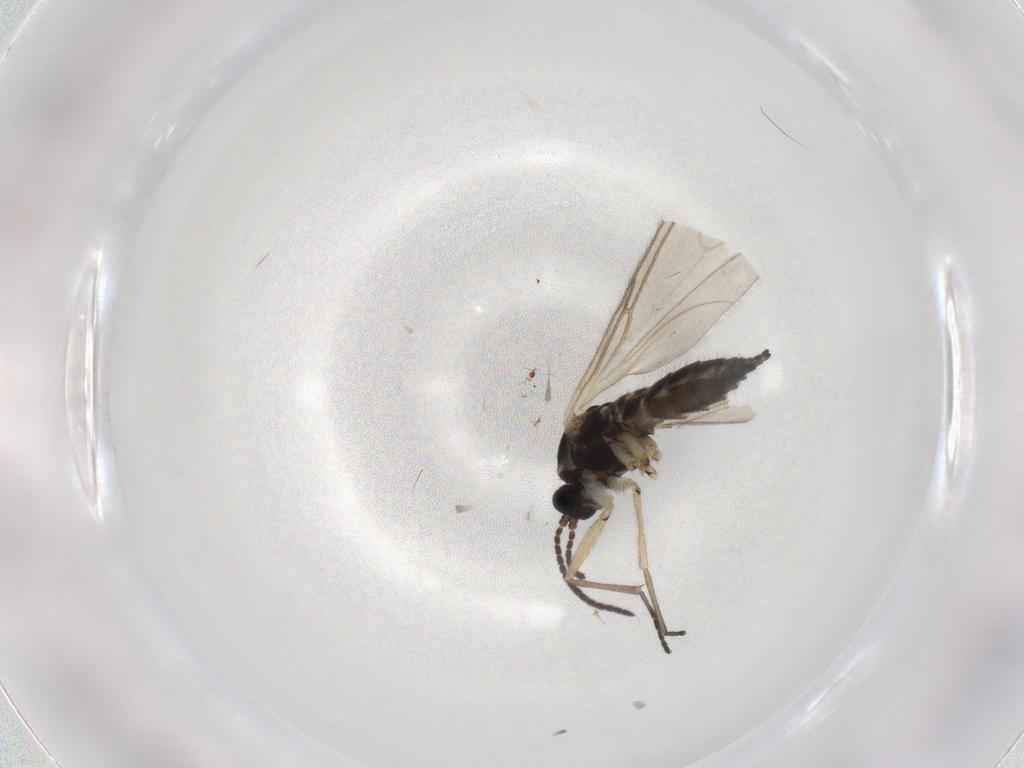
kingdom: Animalia
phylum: Arthropoda
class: Insecta
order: Diptera
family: Sciaridae
